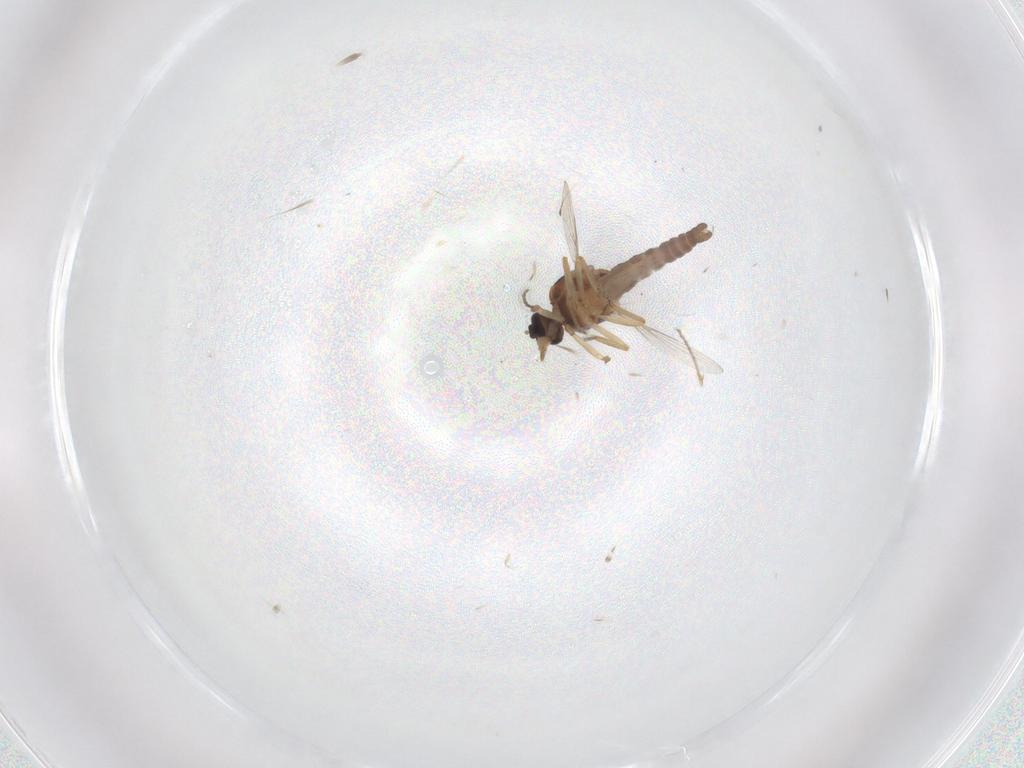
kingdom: Animalia
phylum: Arthropoda
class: Insecta
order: Diptera
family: Ceratopogonidae
